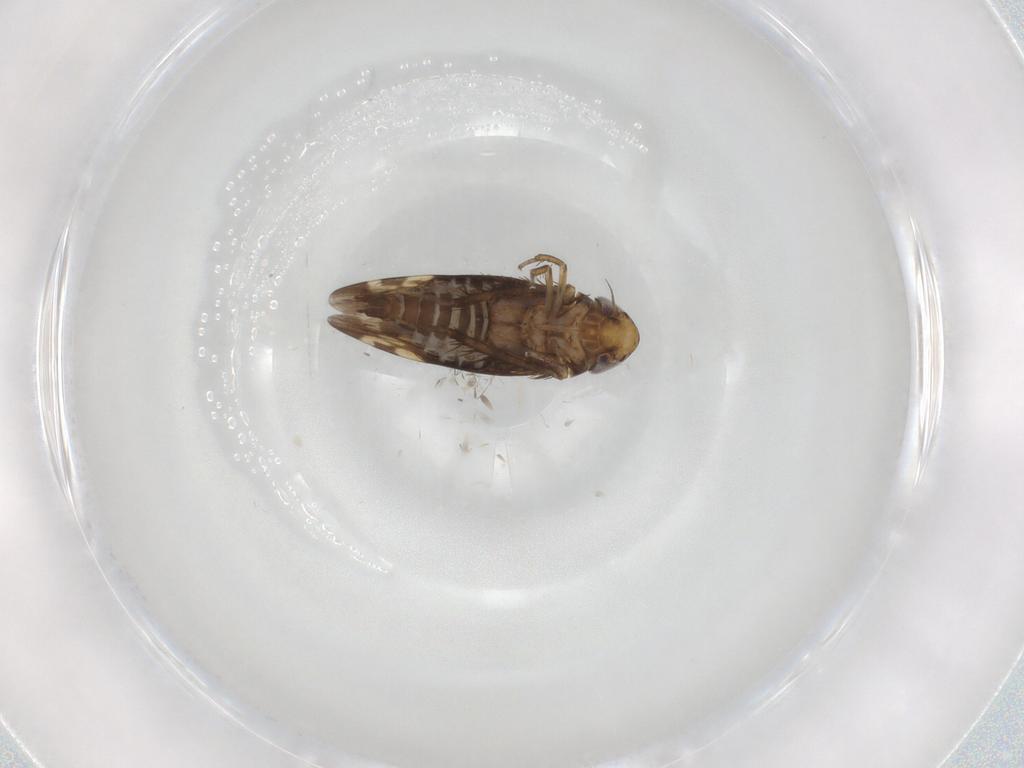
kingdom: Animalia
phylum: Arthropoda
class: Insecta
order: Hemiptera
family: Cicadellidae
